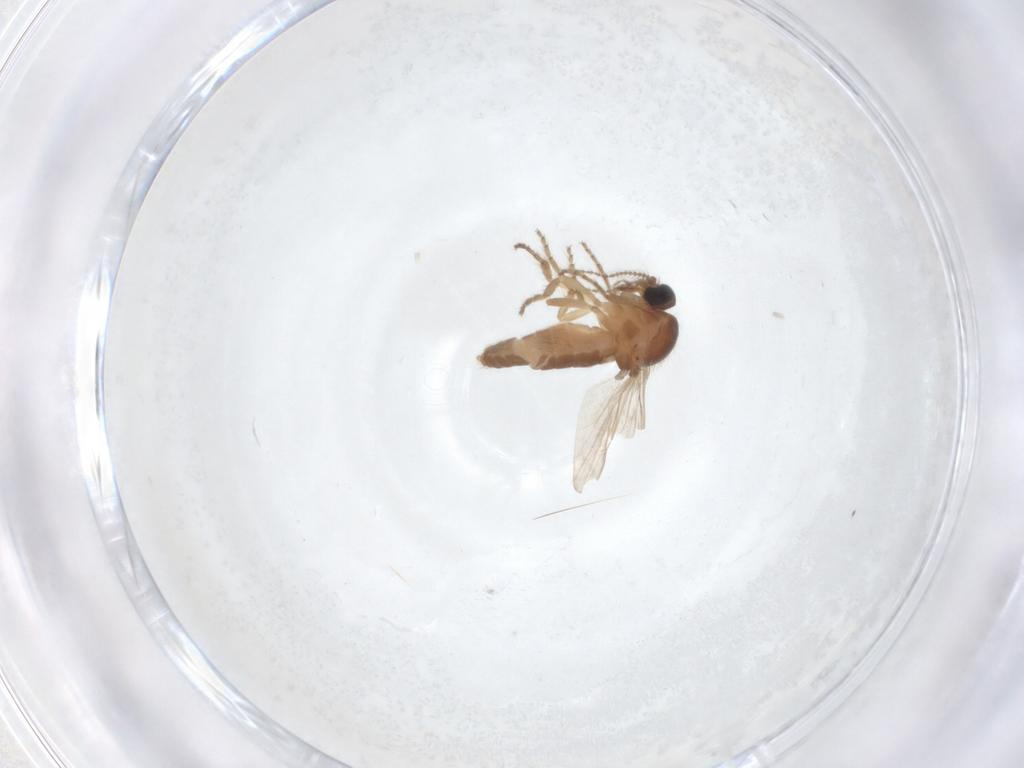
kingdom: Animalia
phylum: Arthropoda
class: Insecta
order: Diptera
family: Ceratopogonidae
